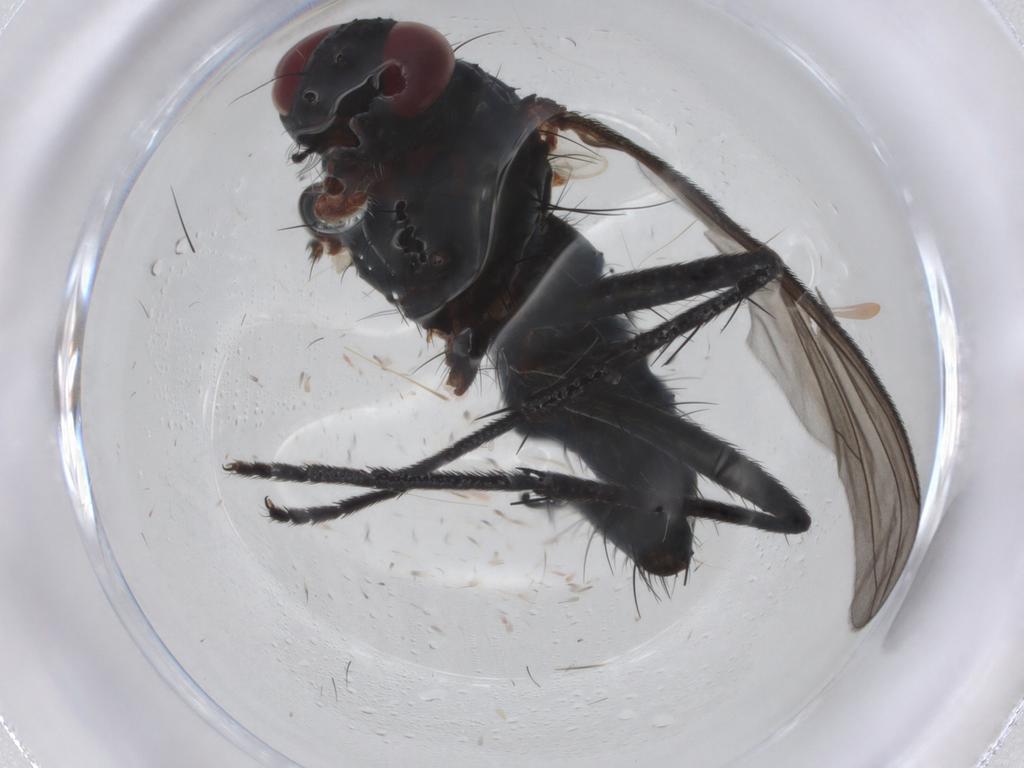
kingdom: Animalia
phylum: Arthropoda
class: Insecta
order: Diptera
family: Tachinidae
